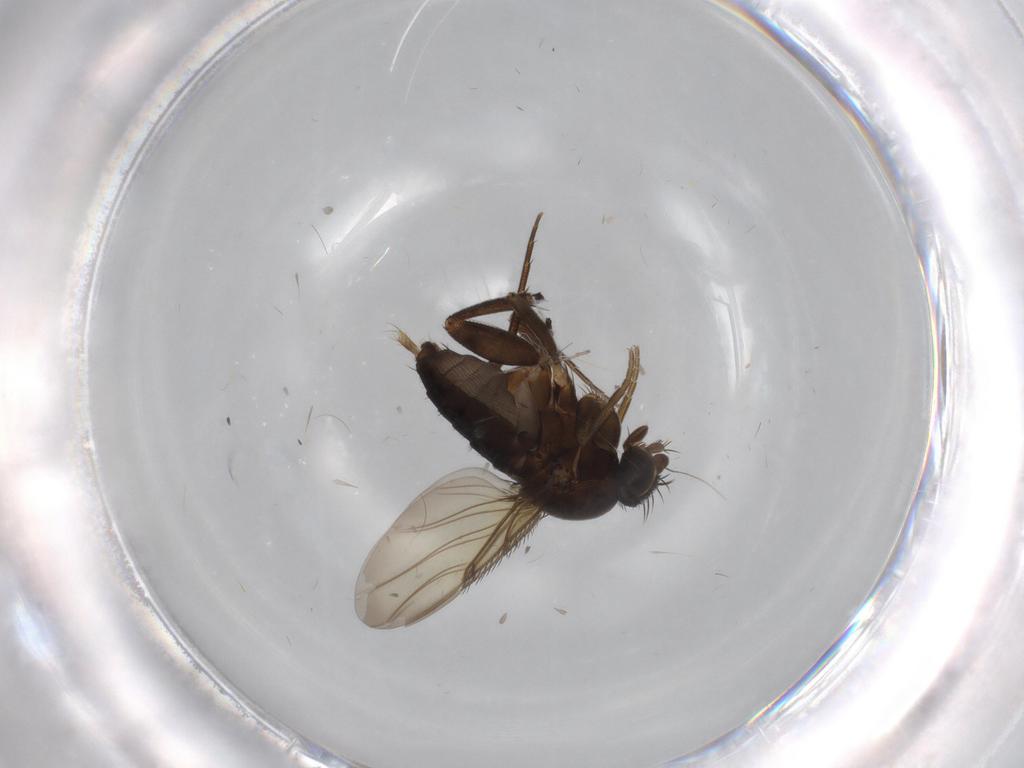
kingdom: Animalia
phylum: Arthropoda
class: Insecta
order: Diptera
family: Phoridae
